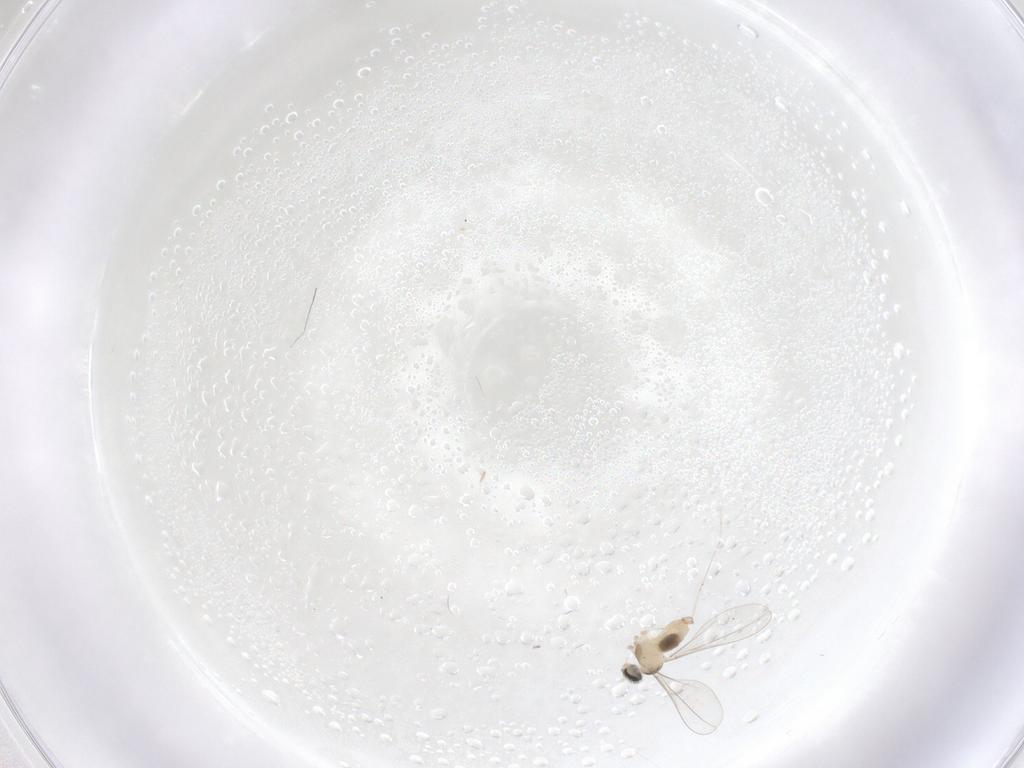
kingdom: Animalia
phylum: Arthropoda
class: Insecta
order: Diptera
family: Cecidomyiidae
